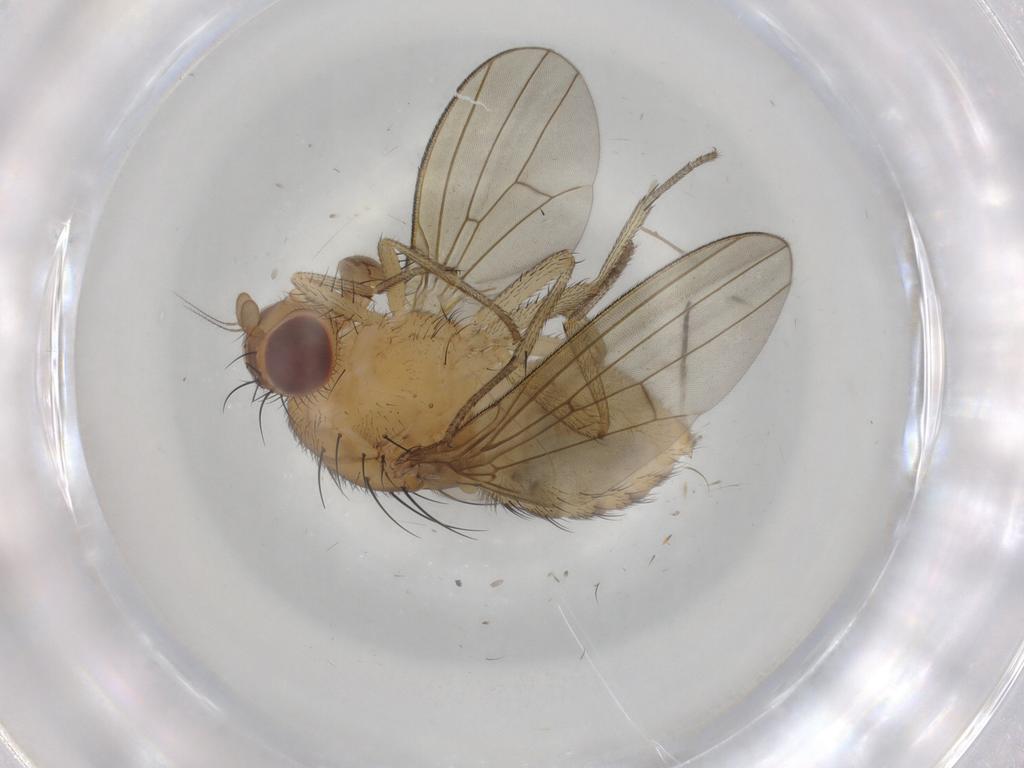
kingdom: Animalia
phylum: Arthropoda
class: Insecta
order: Diptera
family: Chironomidae
